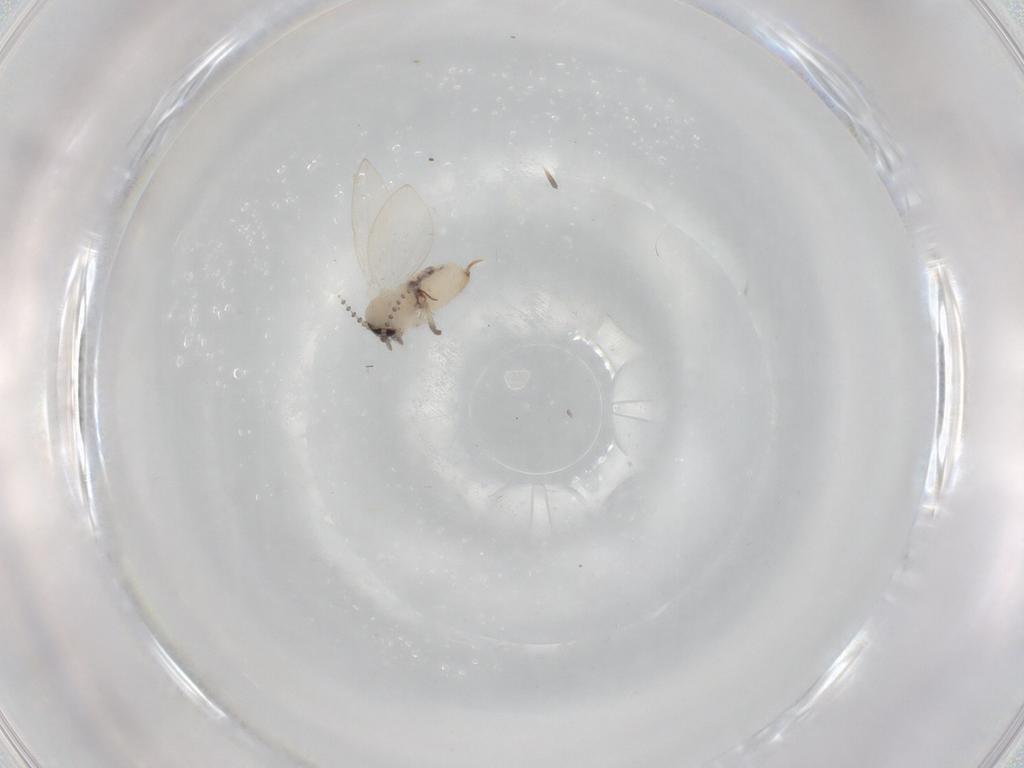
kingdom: Animalia
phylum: Arthropoda
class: Insecta
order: Diptera
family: Psychodidae
